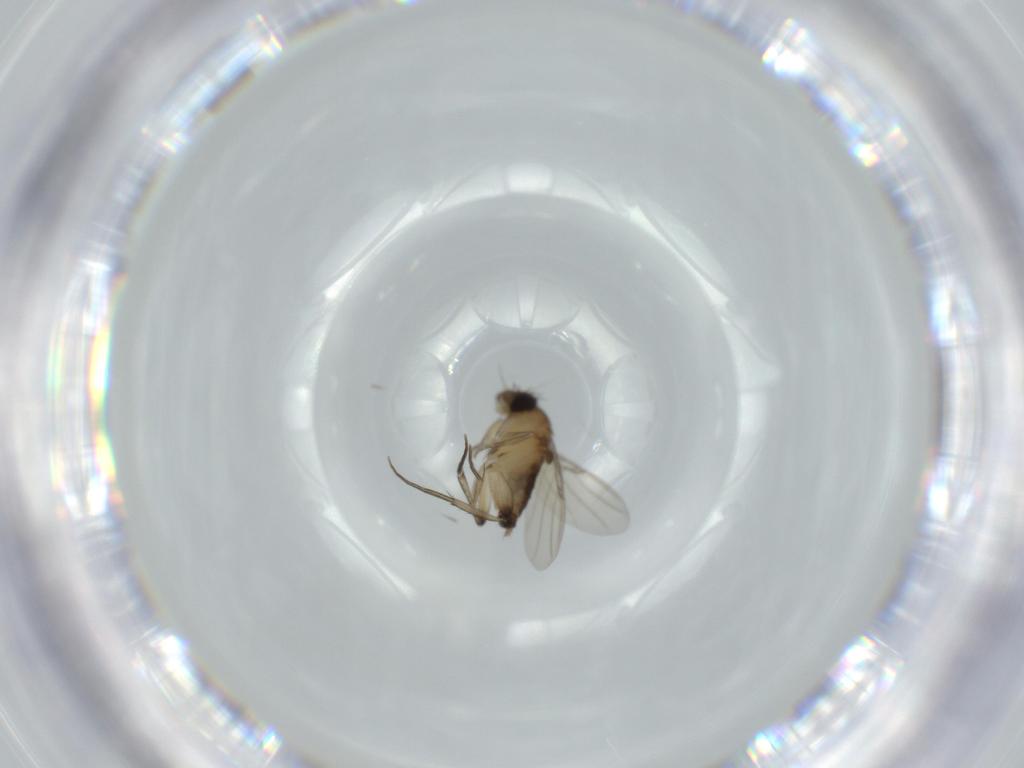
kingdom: Animalia
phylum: Arthropoda
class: Insecta
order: Diptera
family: Phoridae
